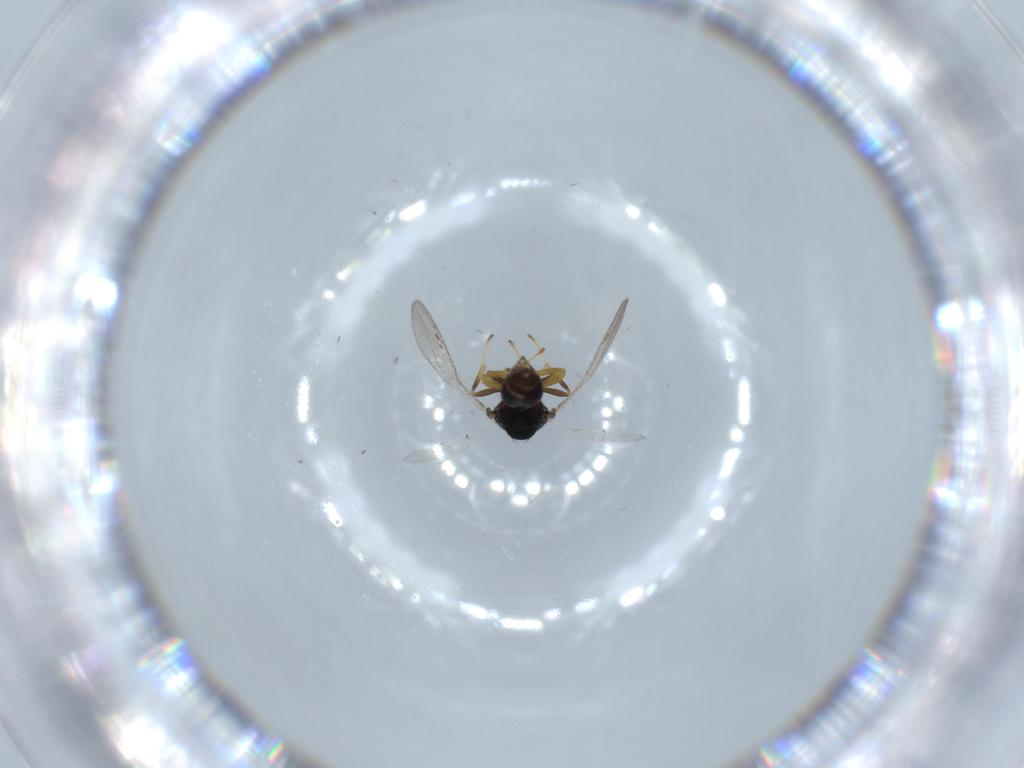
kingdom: Animalia
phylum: Arthropoda
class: Insecta
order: Hymenoptera
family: Pteromalidae
